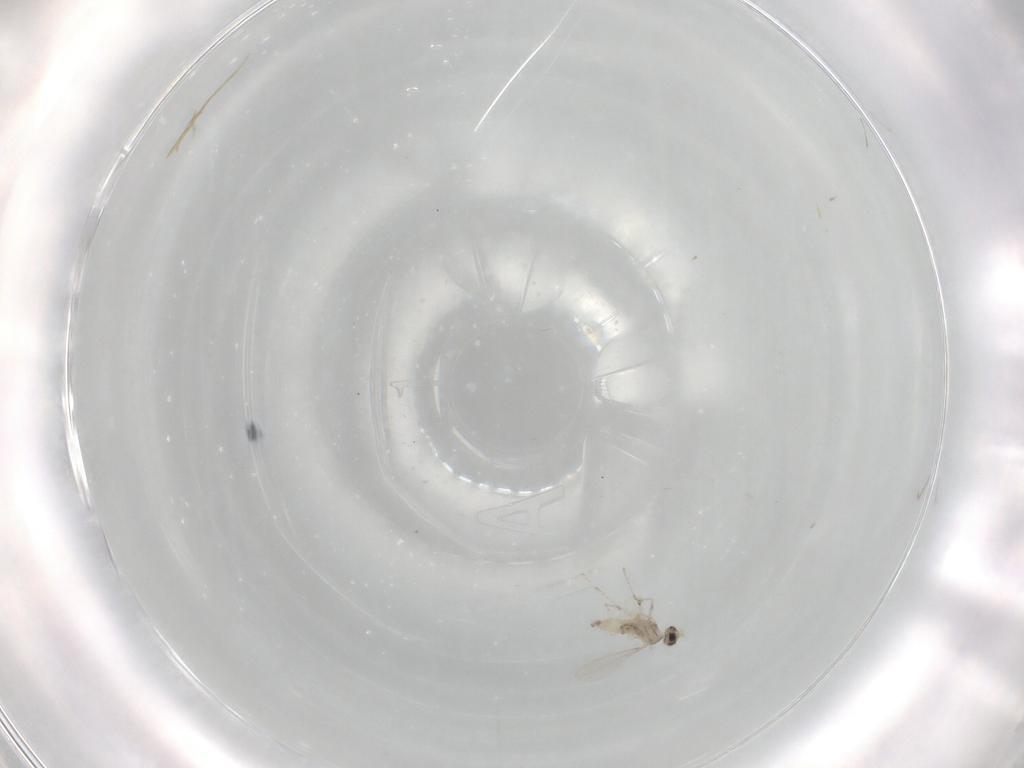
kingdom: Animalia
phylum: Arthropoda
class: Insecta
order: Diptera
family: Cecidomyiidae
